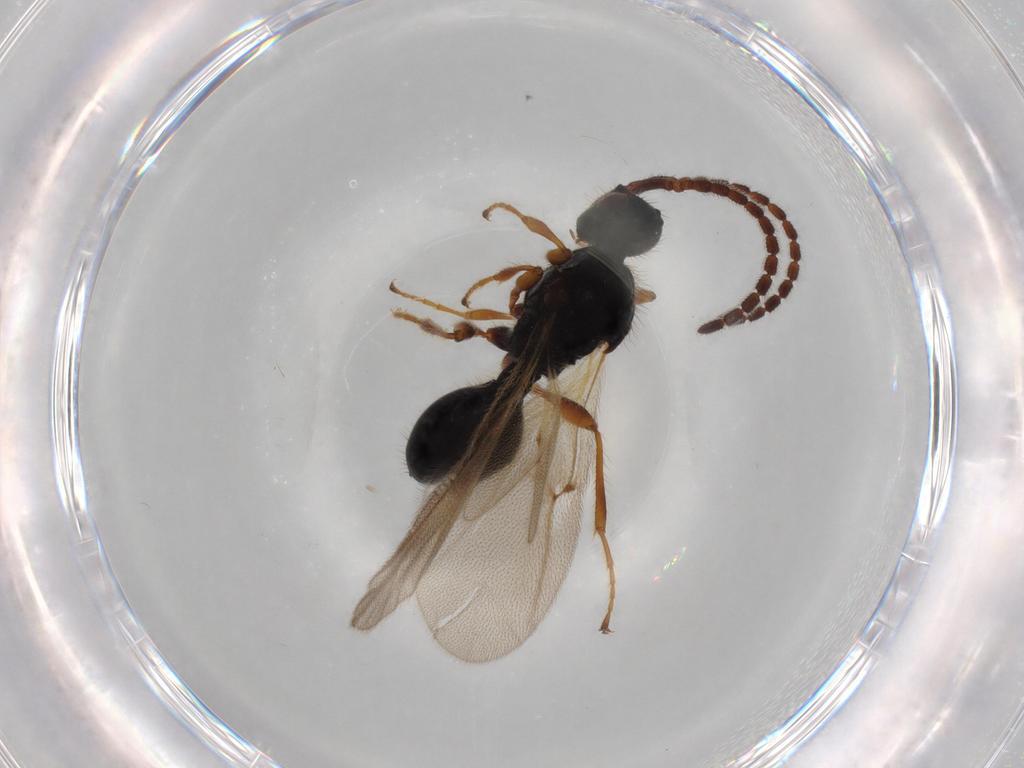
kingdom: Animalia
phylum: Arthropoda
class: Insecta
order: Hymenoptera
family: Diapriidae
